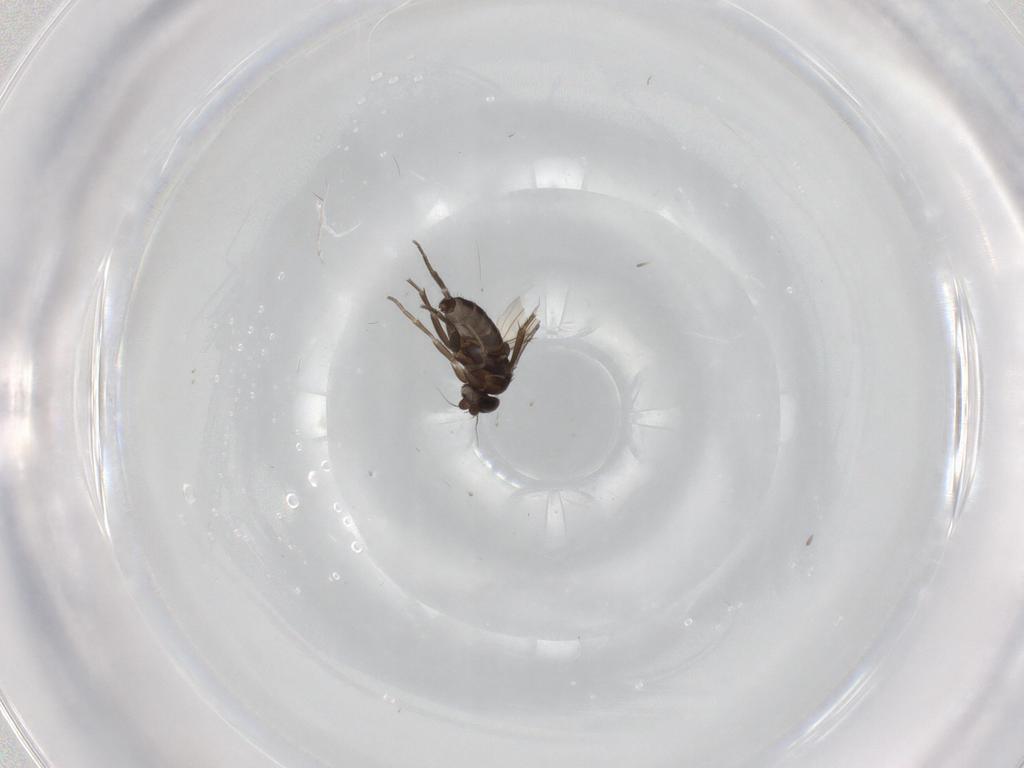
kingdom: Animalia
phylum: Arthropoda
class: Insecta
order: Diptera
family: Phoridae
